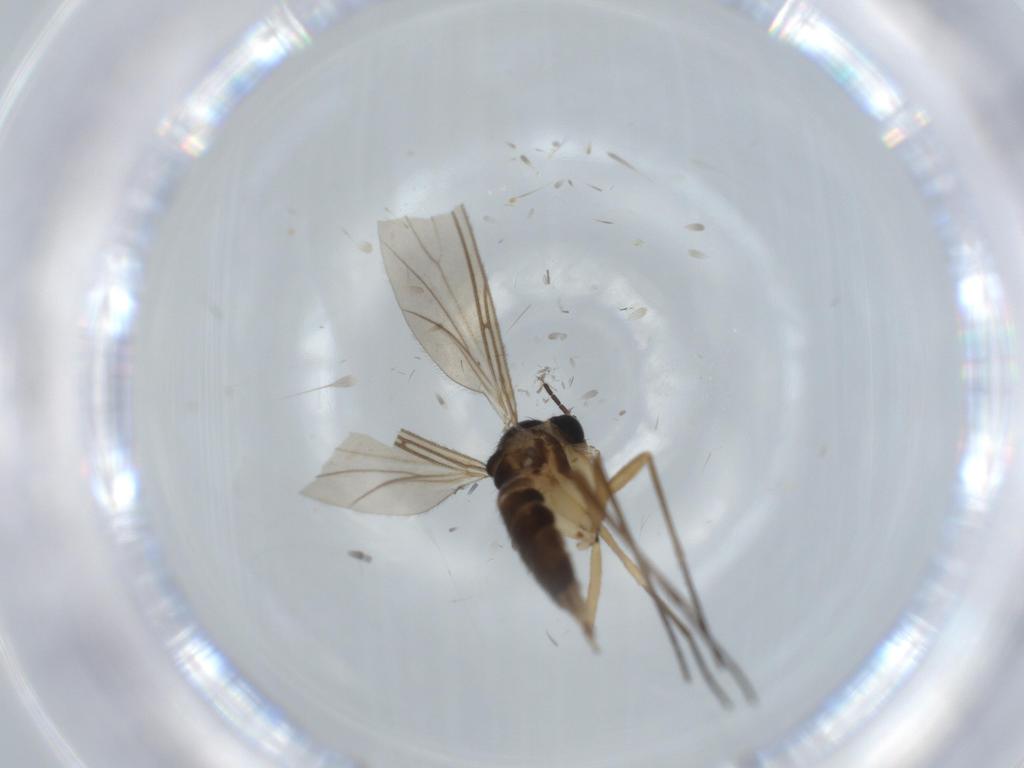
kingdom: Animalia
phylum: Arthropoda
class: Insecta
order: Diptera
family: Sciaridae
